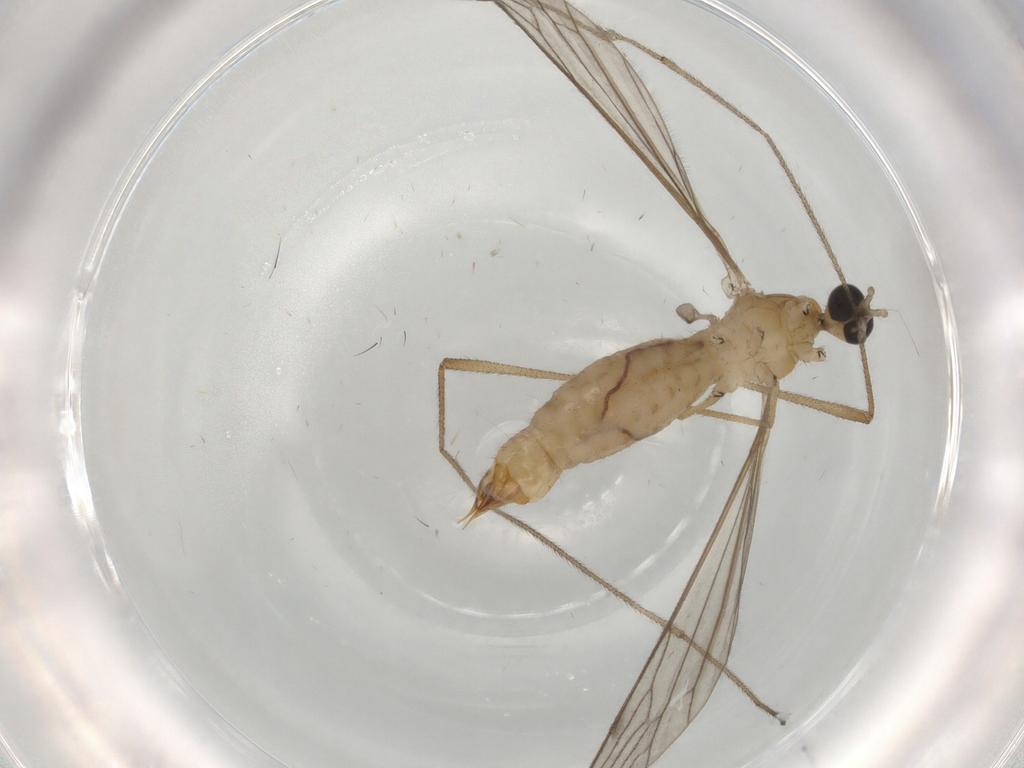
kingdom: Animalia
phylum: Arthropoda
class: Insecta
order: Diptera
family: Limoniidae
